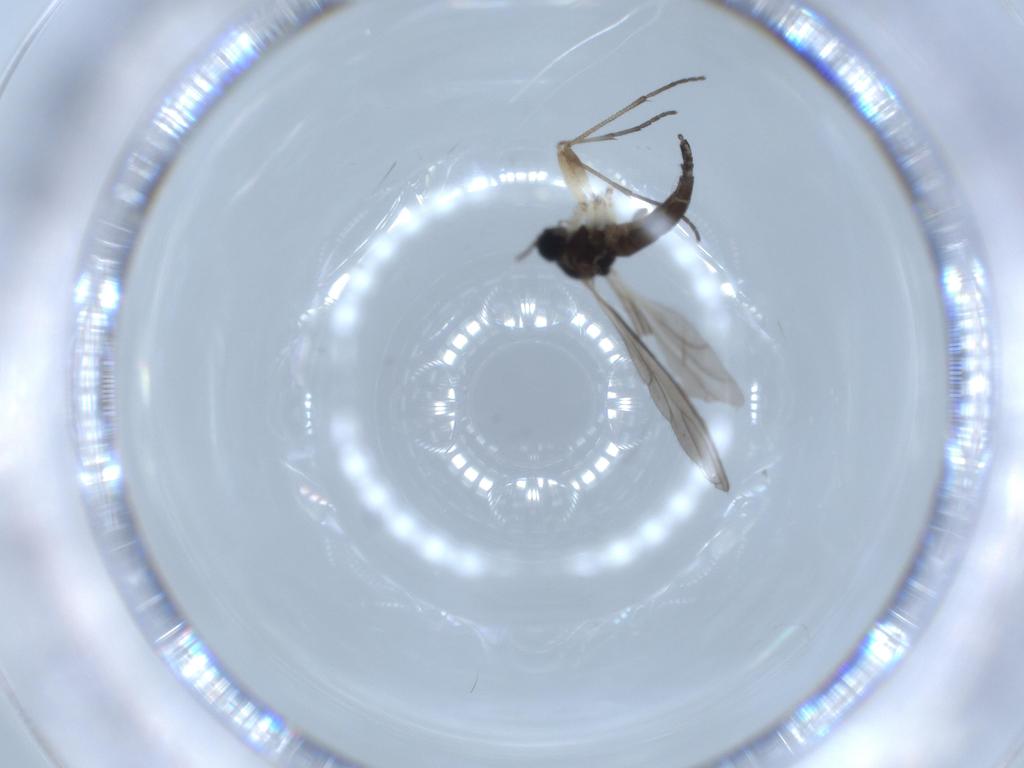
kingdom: Animalia
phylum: Arthropoda
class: Insecta
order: Diptera
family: Sciaridae
